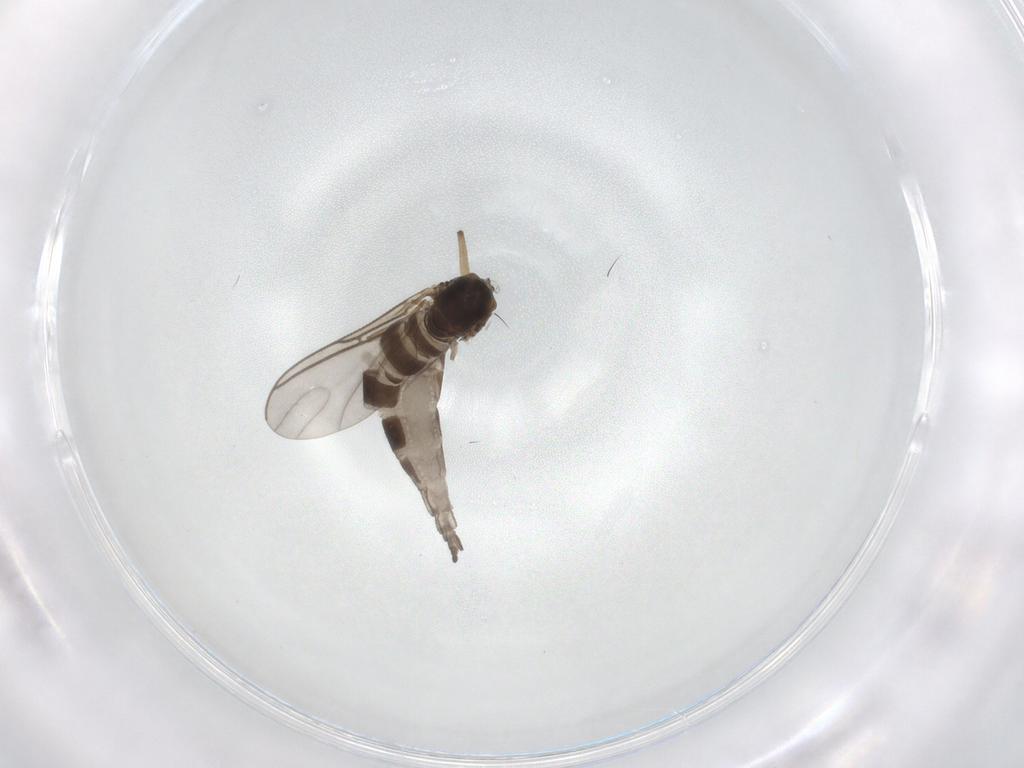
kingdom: Animalia
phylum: Arthropoda
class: Insecta
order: Diptera
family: Sciaridae
